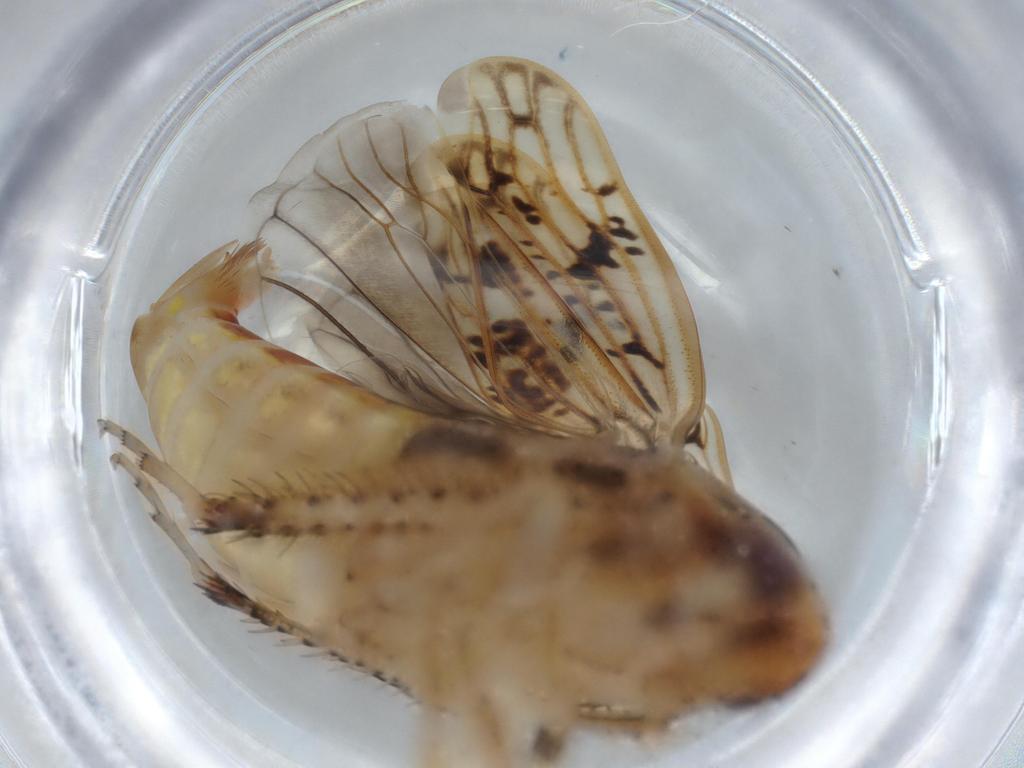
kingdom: Animalia
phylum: Arthropoda
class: Insecta
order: Hemiptera
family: Cicadellidae
